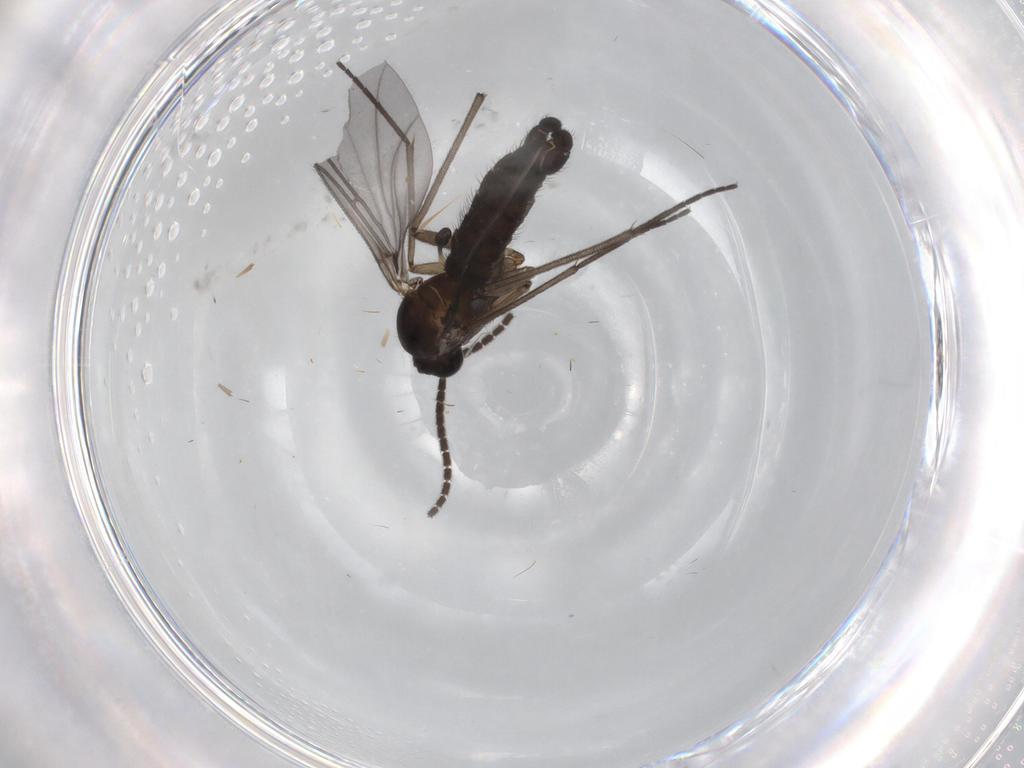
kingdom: Animalia
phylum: Arthropoda
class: Insecta
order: Diptera
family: Sciaridae
